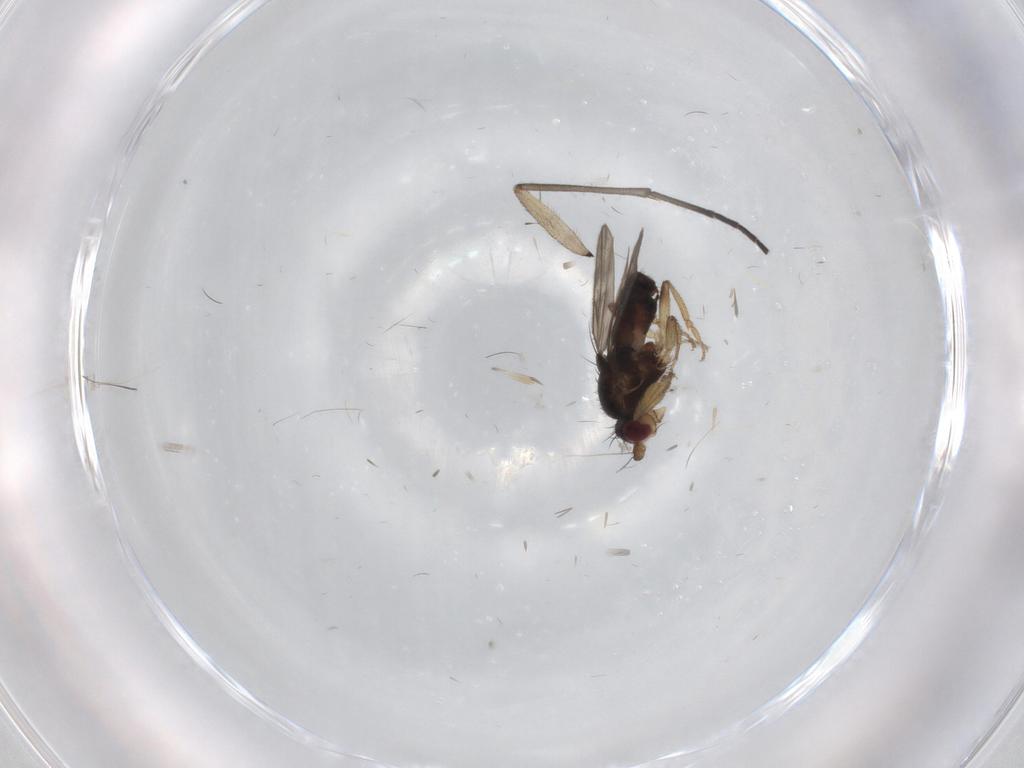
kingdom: Animalia
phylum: Arthropoda
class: Insecta
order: Diptera
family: Sphaeroceridae
